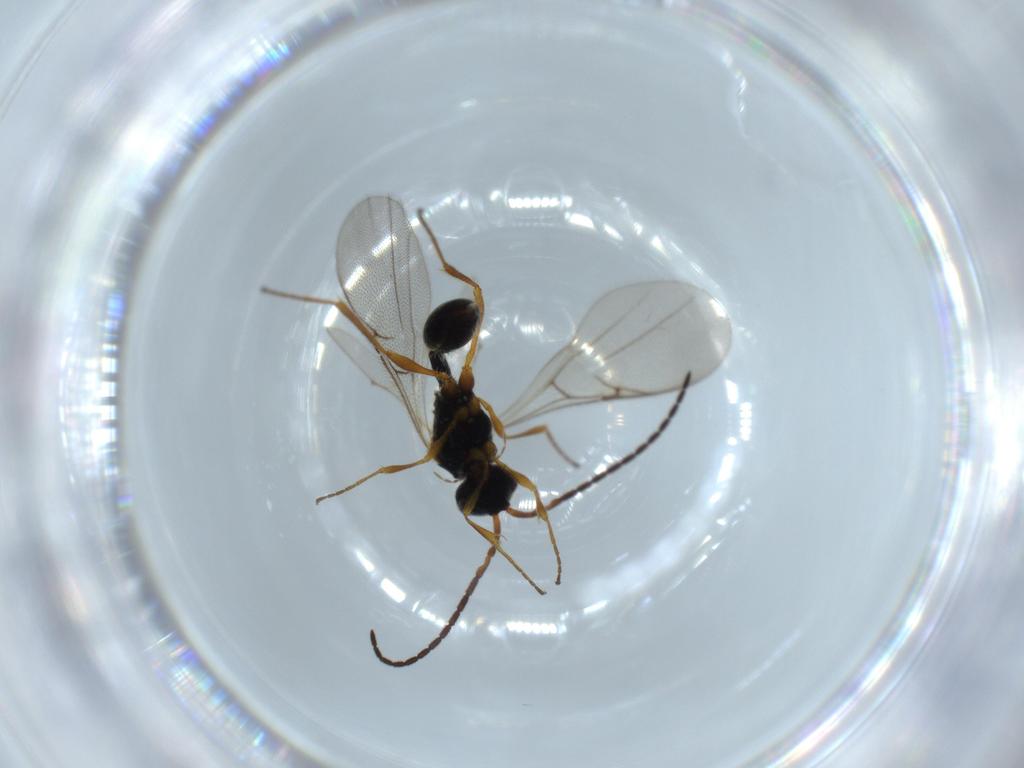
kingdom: Animalia
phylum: Arthropoda
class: Insecta
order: Hymenoptera
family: Diapriidae
